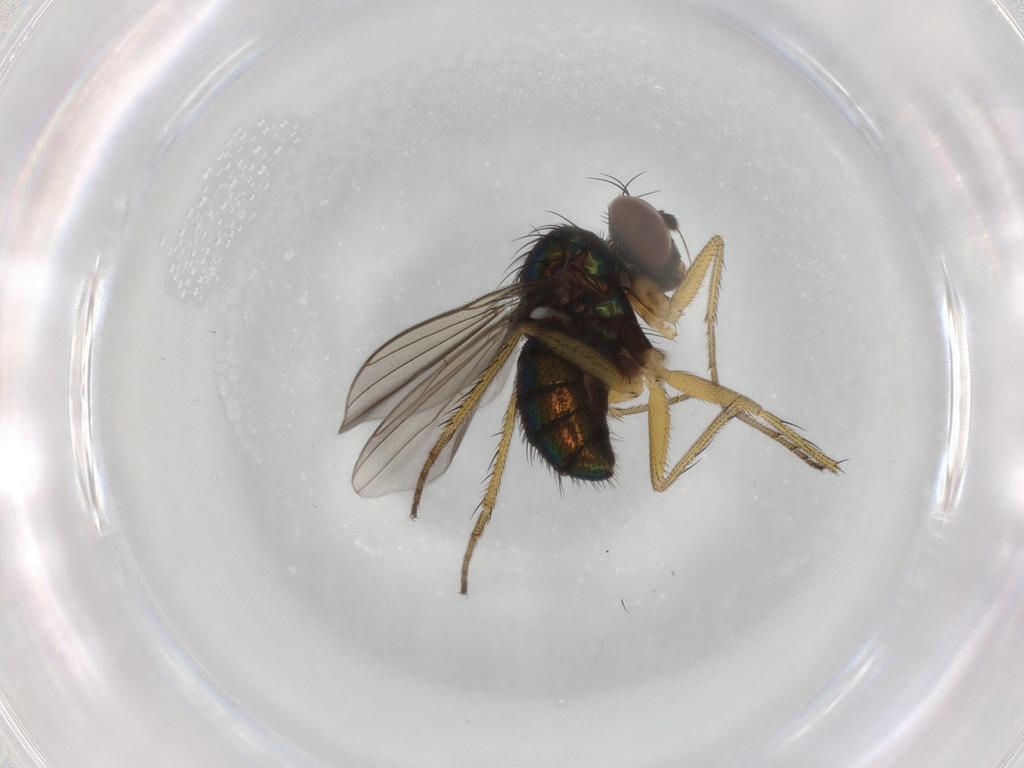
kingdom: Animalia
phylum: Arthropoda
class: Insecta
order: Diptera
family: Dolichopodidae
